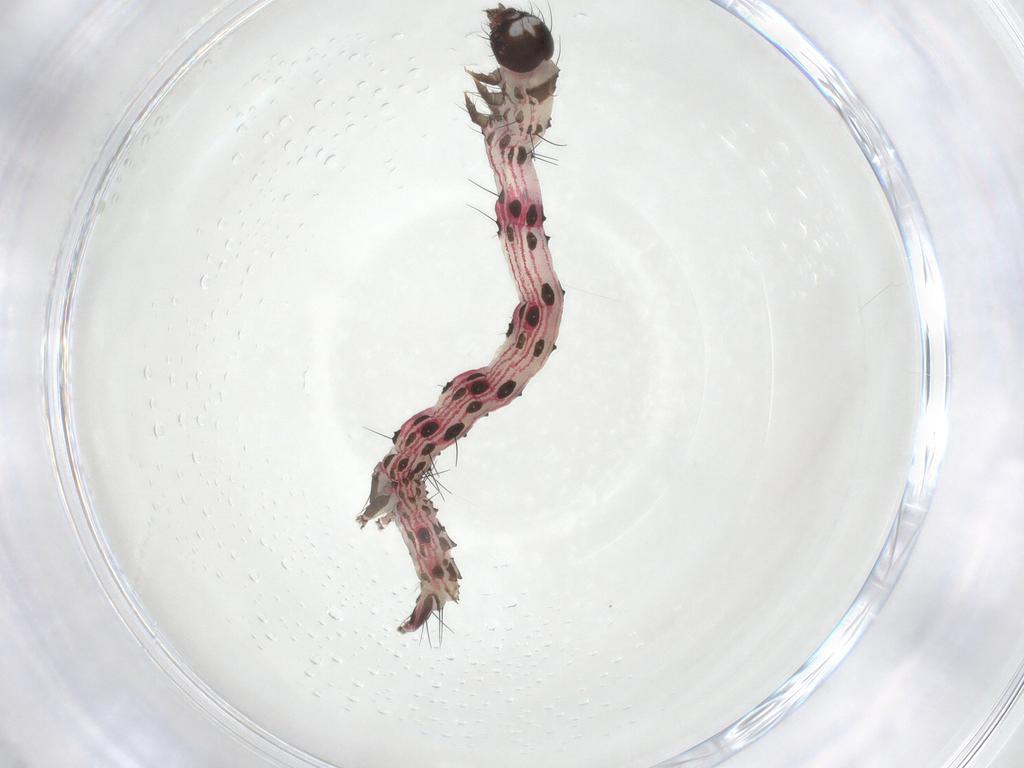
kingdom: Animalia
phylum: Arthropoda
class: Insecta
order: Lepidoptera
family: Erebidae
